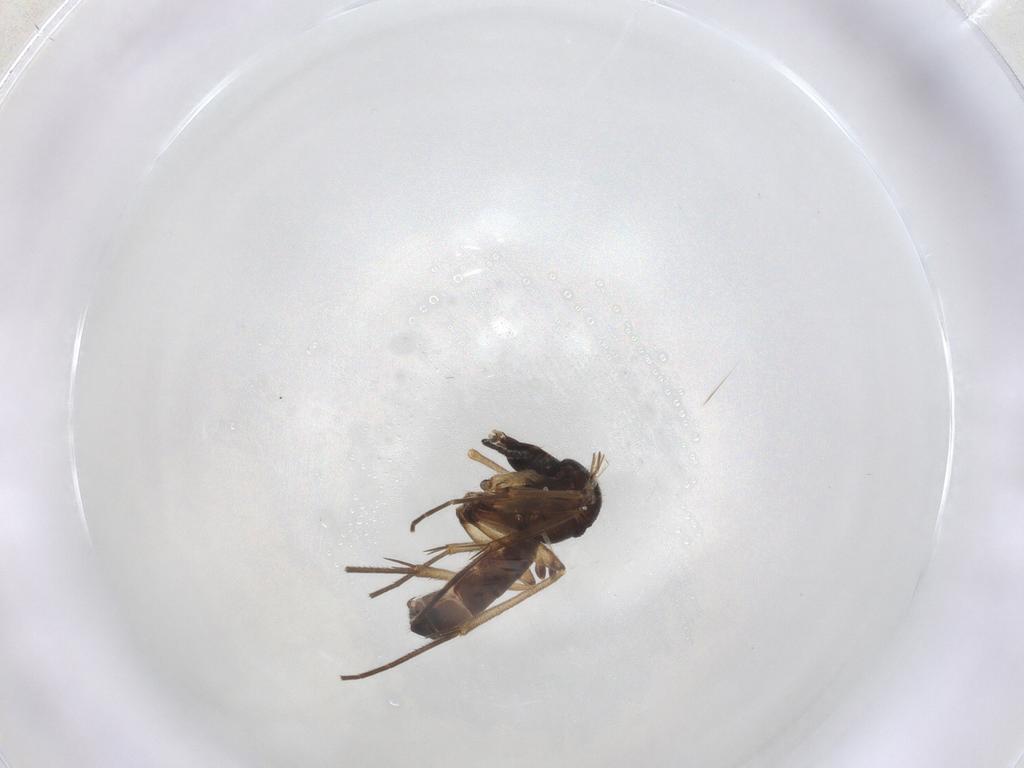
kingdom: Animalia
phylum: Arthropoda
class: Insecta
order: Diptera
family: Mycetophilidae
